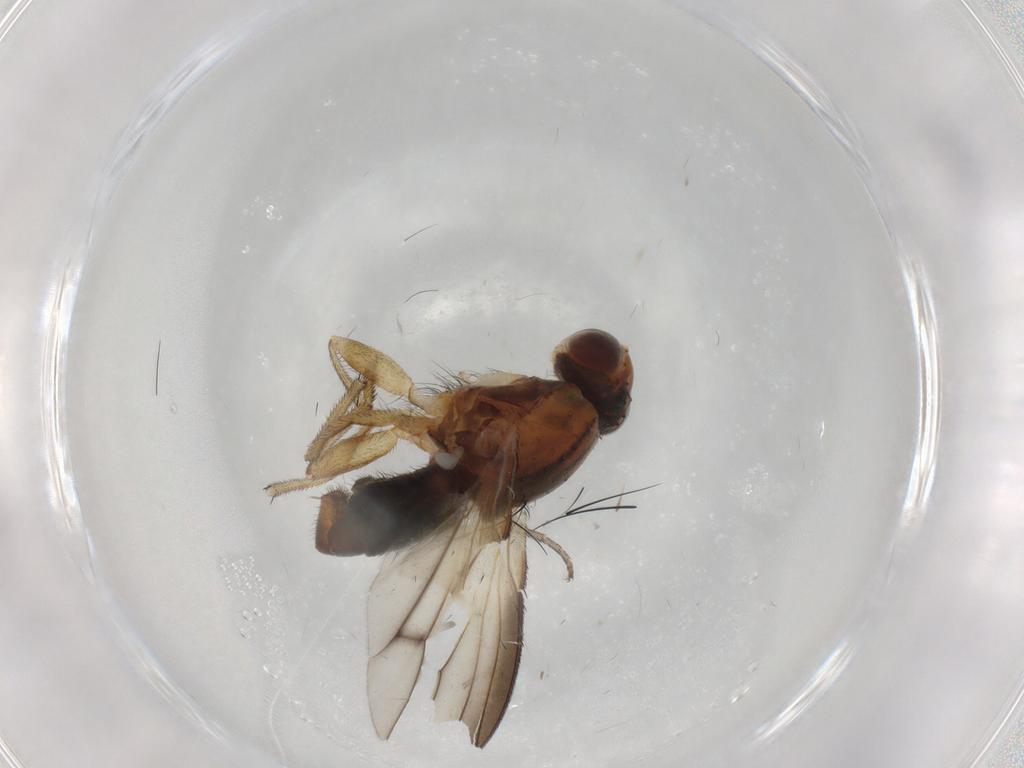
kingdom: Animalia
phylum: Arthropoda
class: Insecta
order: Diptera
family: Heleomyzidae
